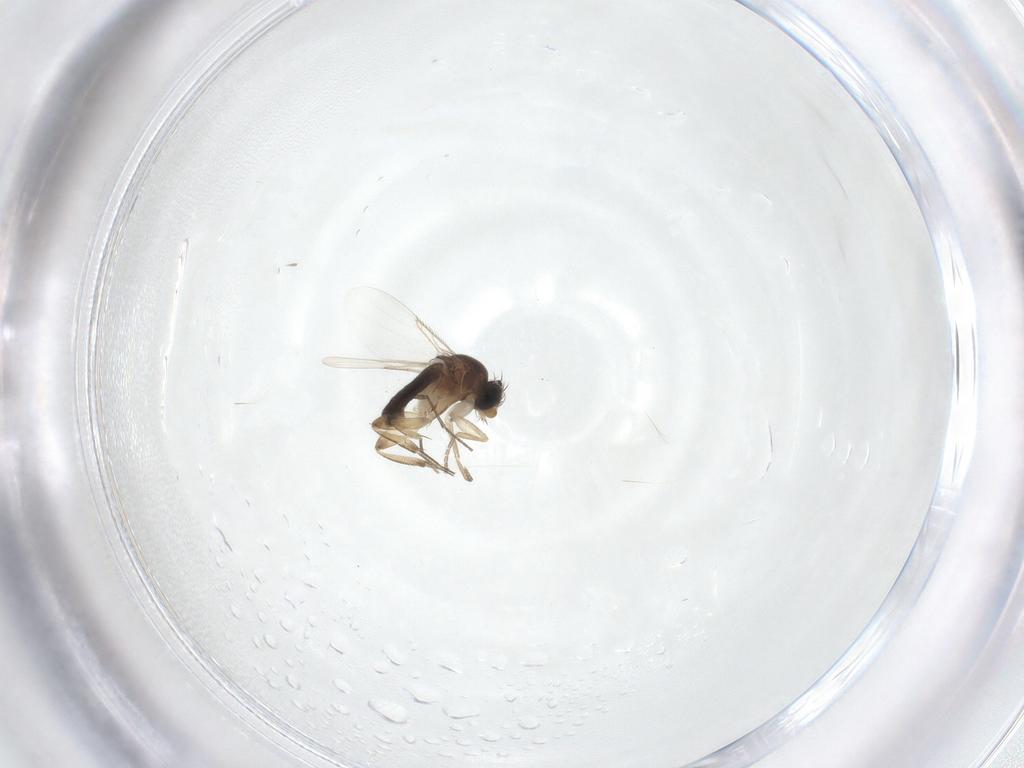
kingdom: Animalia
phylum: Arthropoda
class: Insecta
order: Diptera
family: Phoridae
